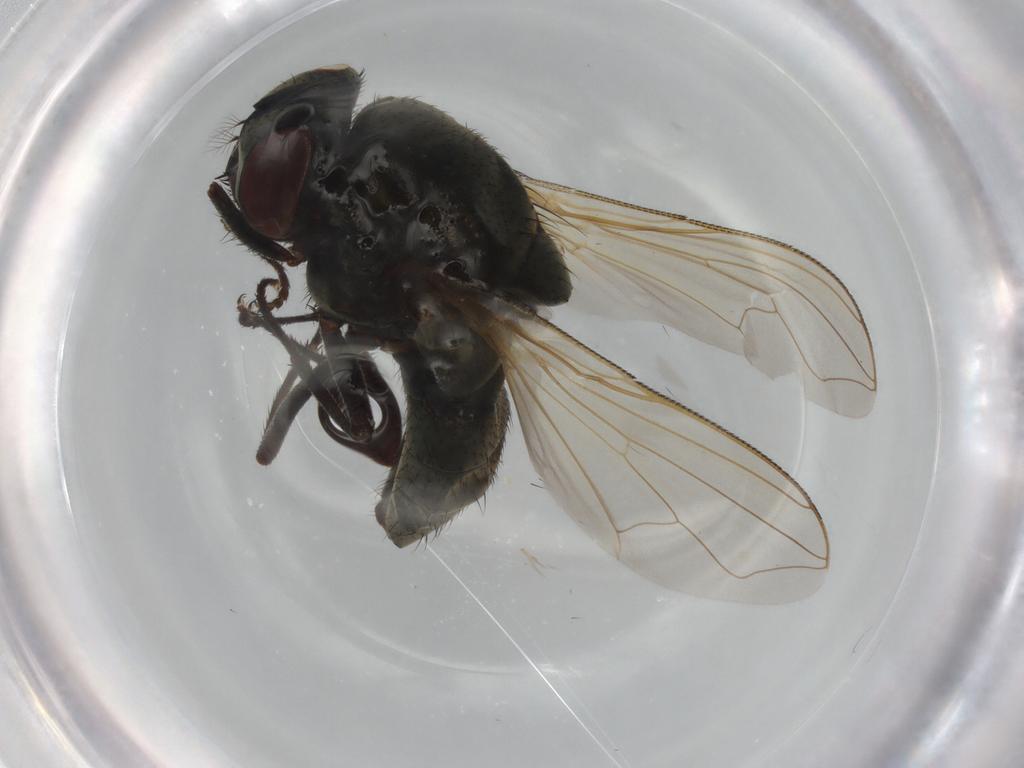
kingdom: Animalia
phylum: Arthropoda
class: Insecta
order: Diptera
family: Muscidae
